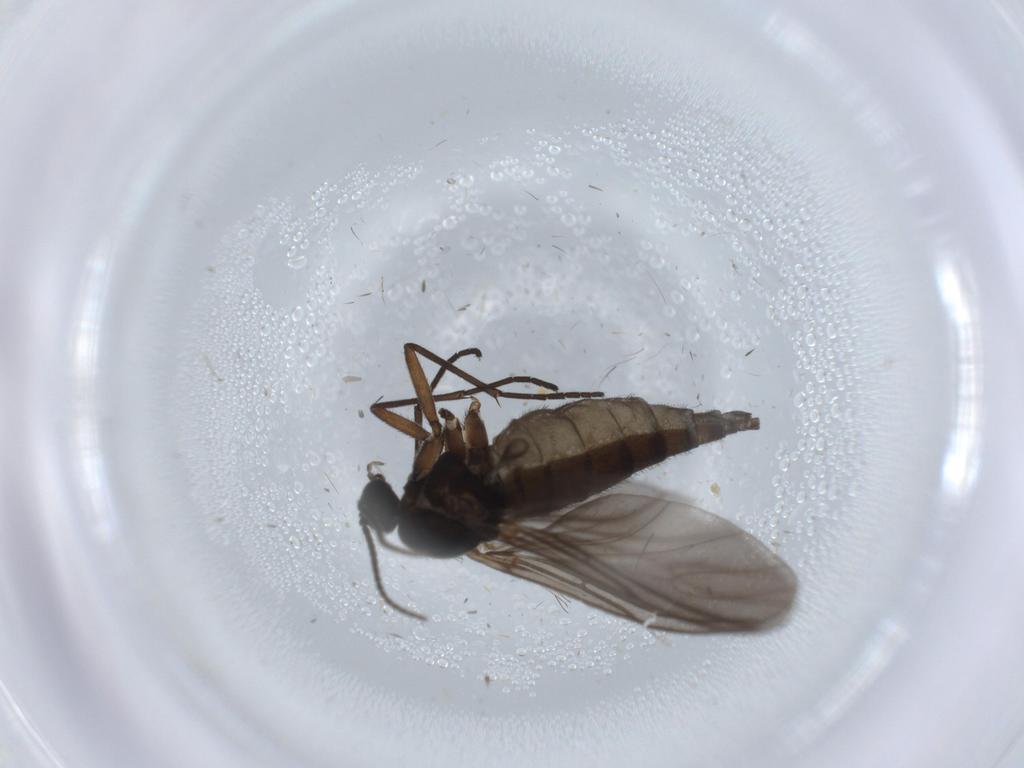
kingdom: Animalia
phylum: Arthropoda
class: Insecta
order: Diptera
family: Sciaridae
